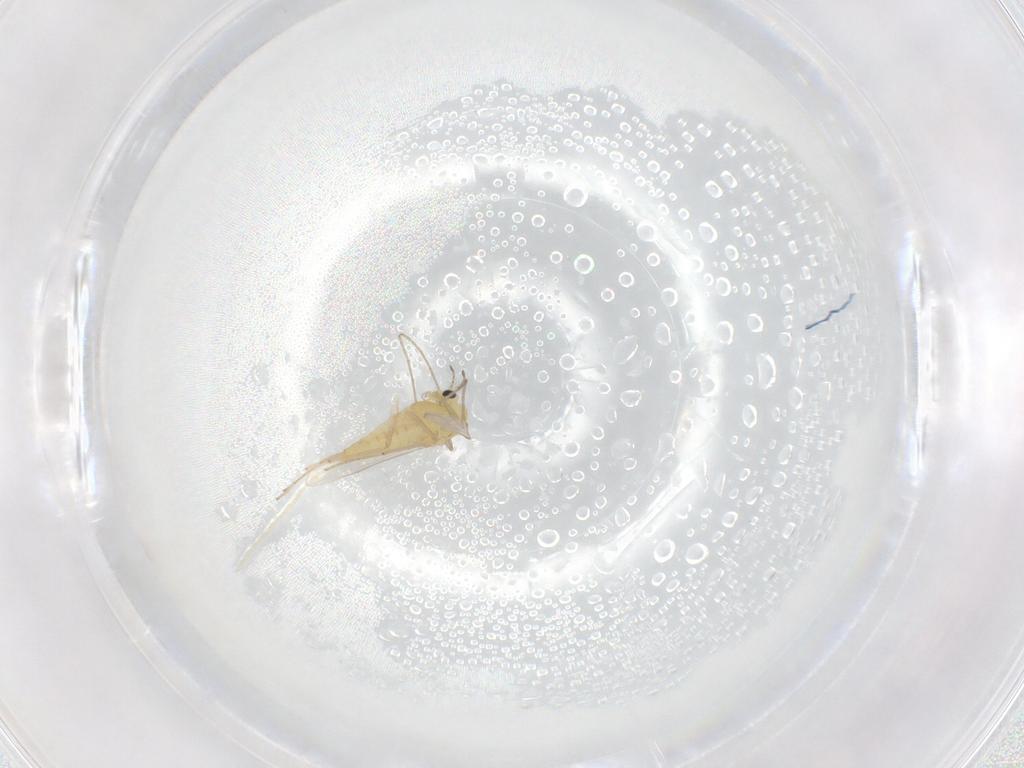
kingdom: Animalia
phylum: Arthropoda
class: Insecta
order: Diptera
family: Chironomidae
